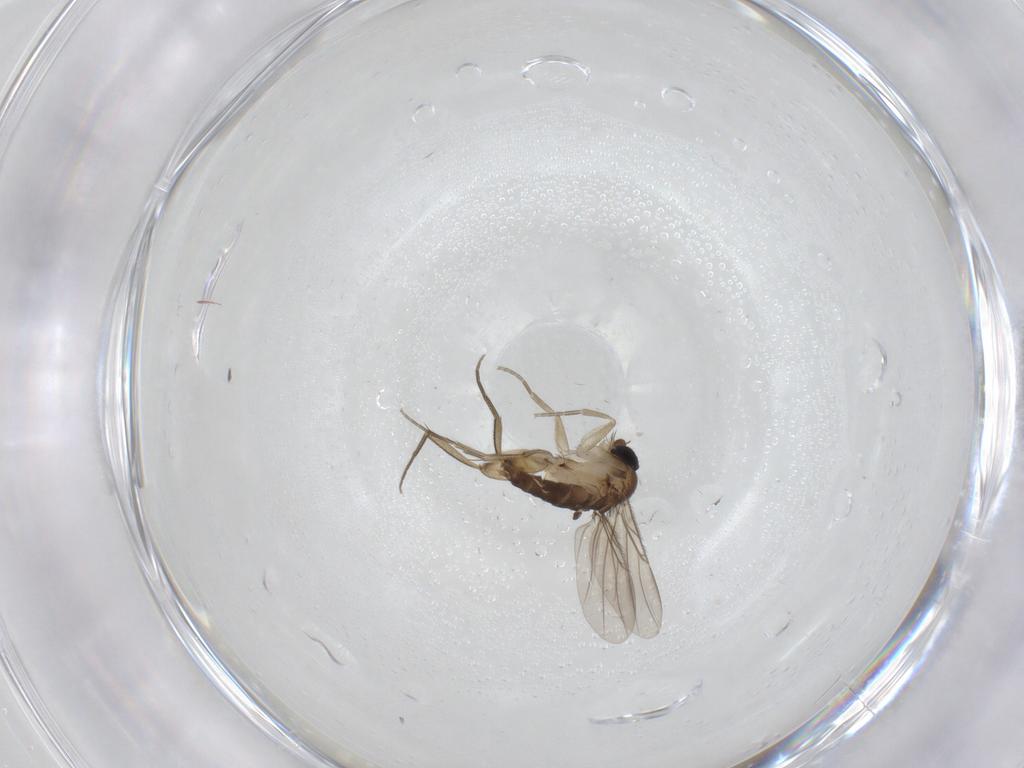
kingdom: Animalia
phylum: Arthropoda
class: Insecta
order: Diptera
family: Phoridae
